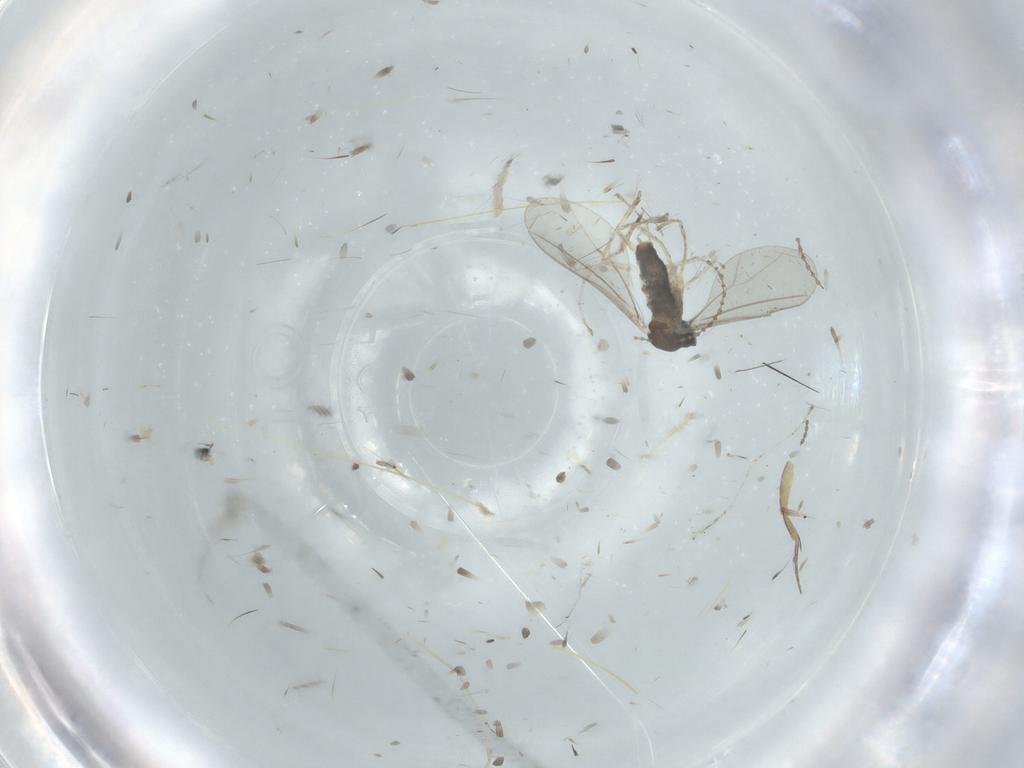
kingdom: Animalia
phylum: Arthropoda
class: Insecta
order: Diptera
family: Cecidomyiidae
